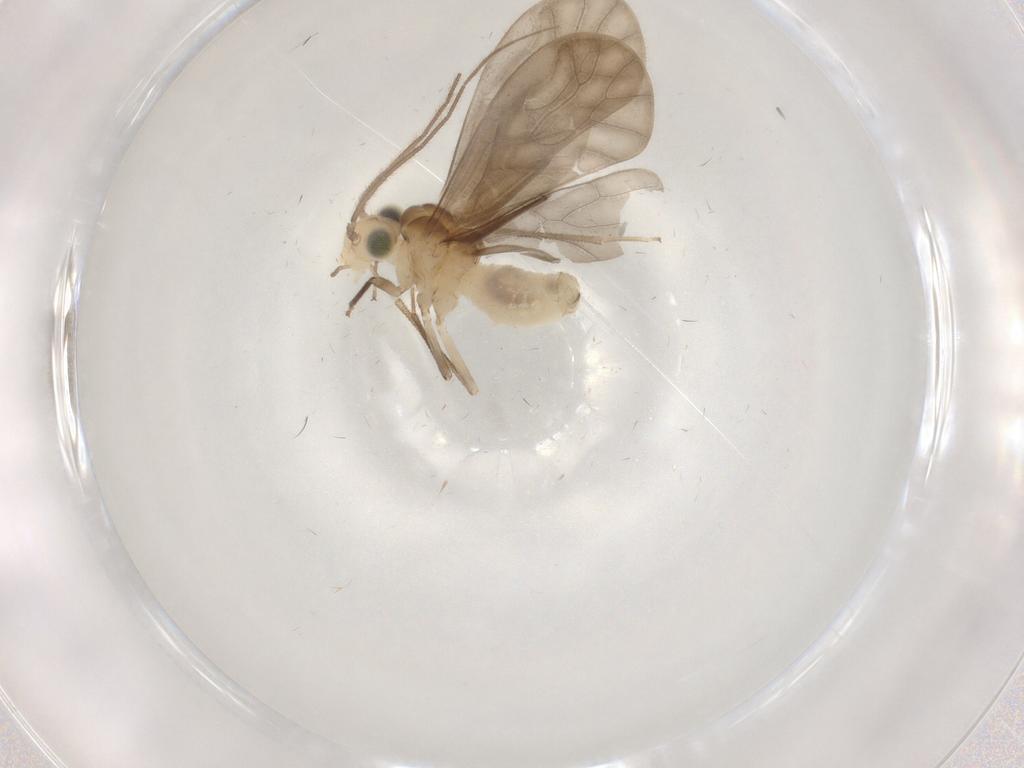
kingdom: Animalia
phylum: Arthropoda
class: Insecta
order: Psocodea
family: Caeciliusidae
